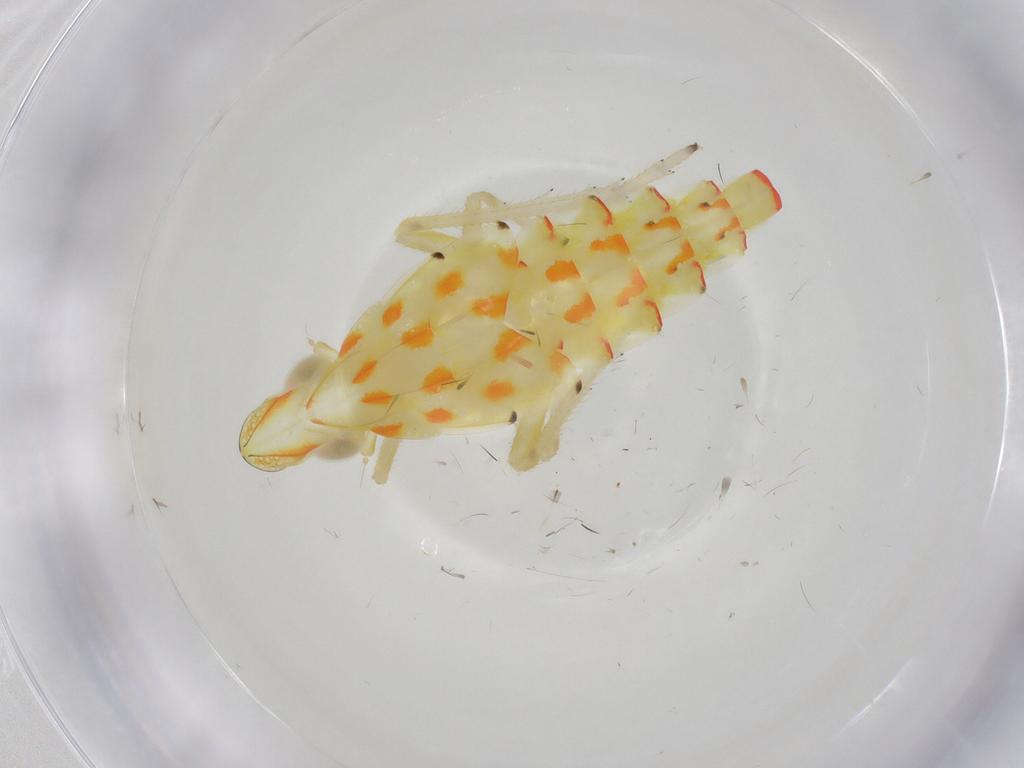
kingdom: Animalia
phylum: Arthropoda
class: Insecta
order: Hemiptera
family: Tropiduchidae
